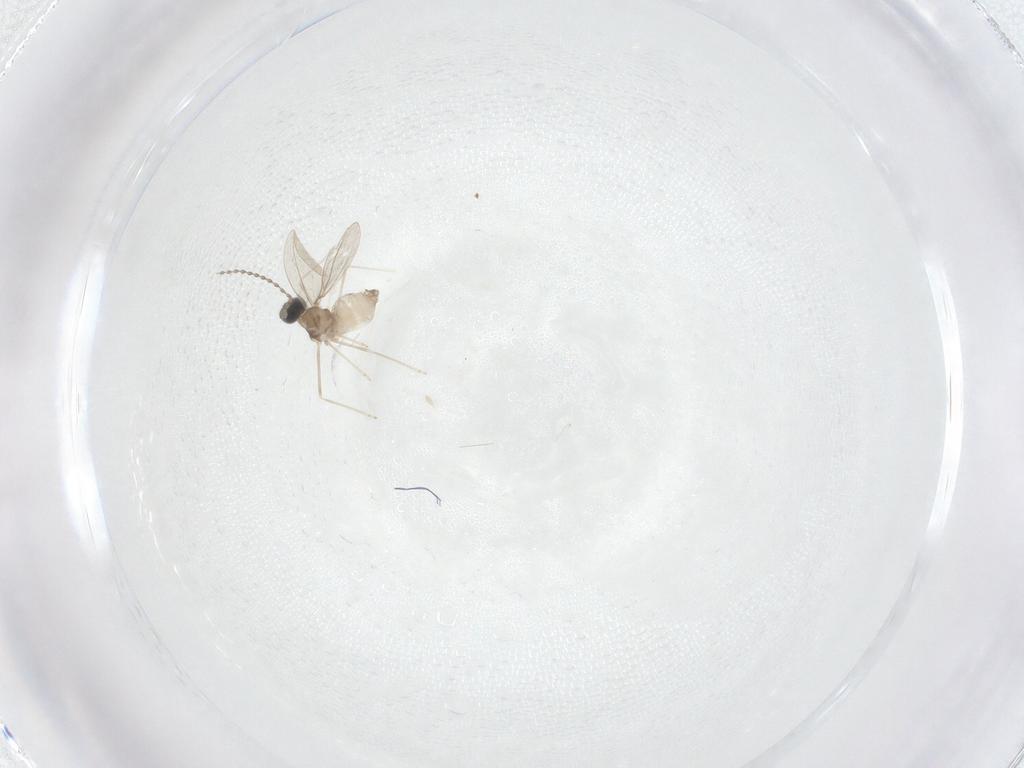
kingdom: Animalia
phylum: Arthropoda
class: Insecta
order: Diptera
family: Cecidomyiidae
